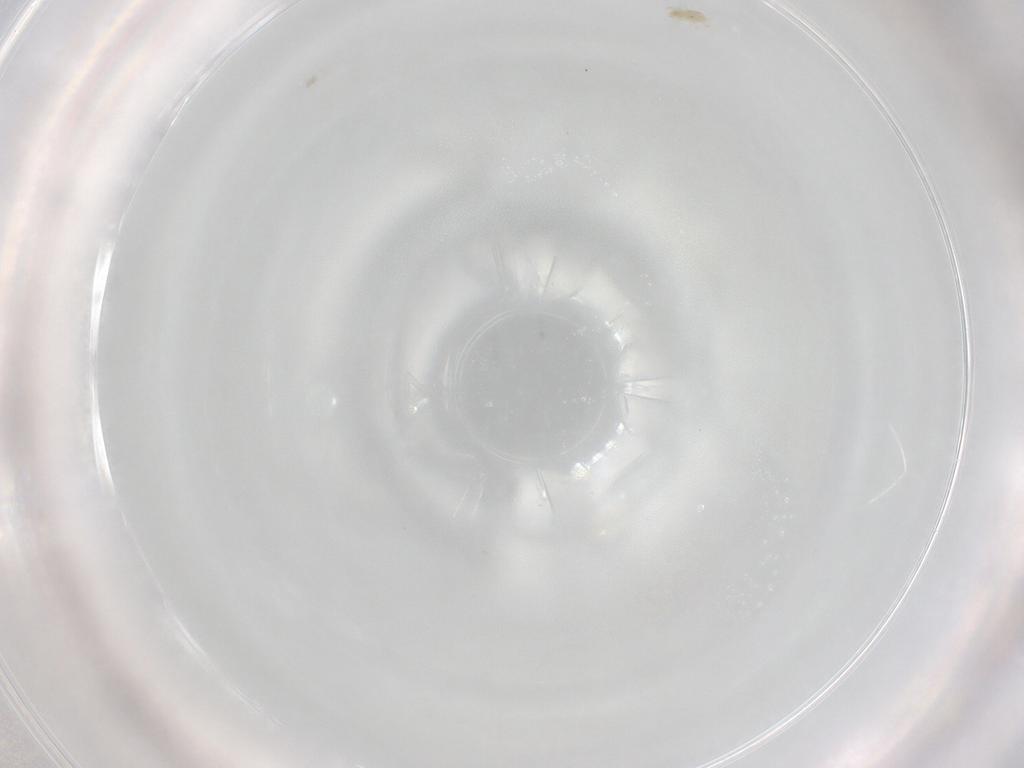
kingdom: Animalia
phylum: Arthropoda
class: Arachnida
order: Trombidiformes
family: Eupodidae
